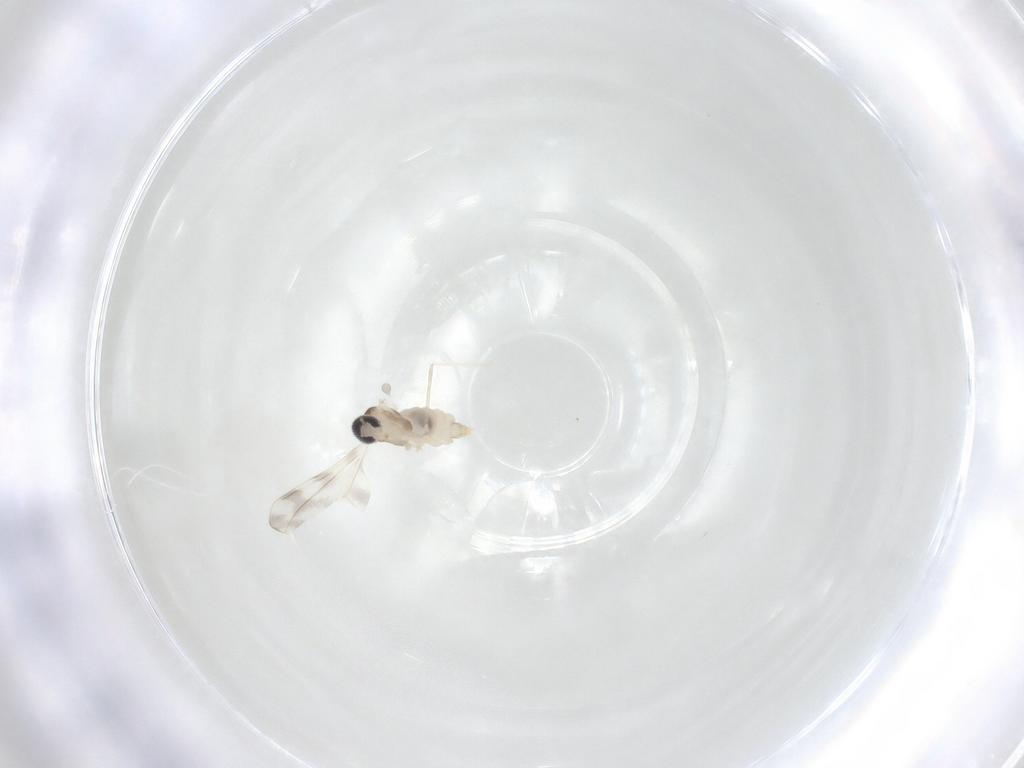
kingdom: Animalia
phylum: Arthropoda
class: Insecta
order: Diptera
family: Cecidomyiidae
